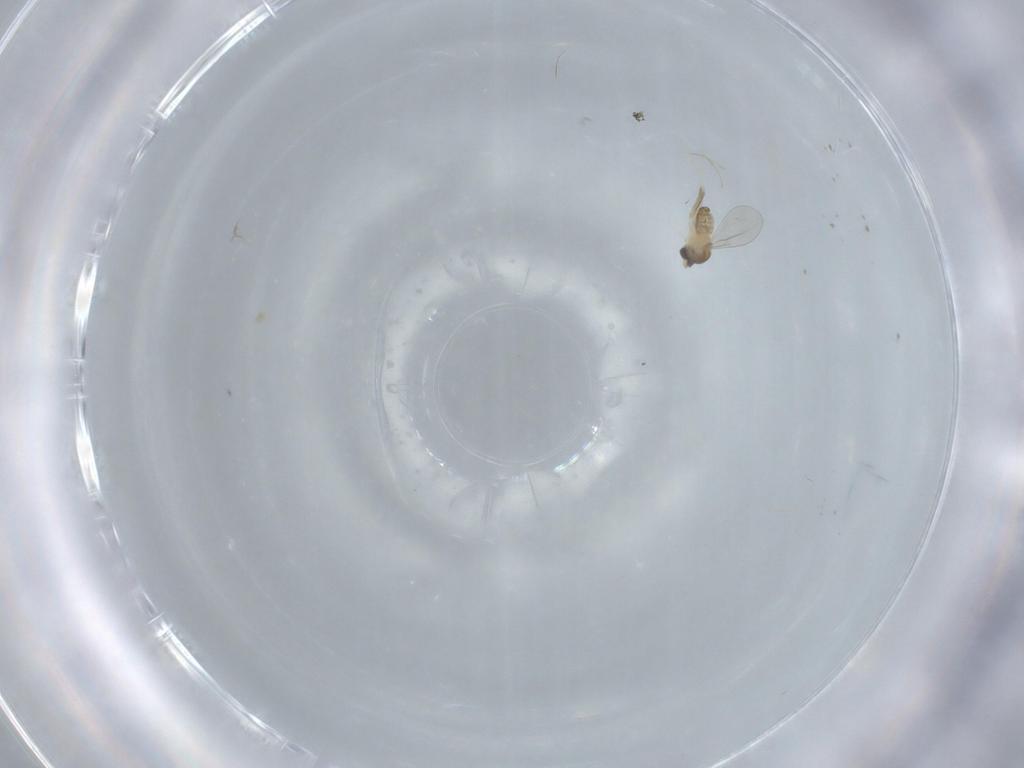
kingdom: Animalia
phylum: Arthropoda
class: Insecta
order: Diptera
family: Cecidomyiidae
